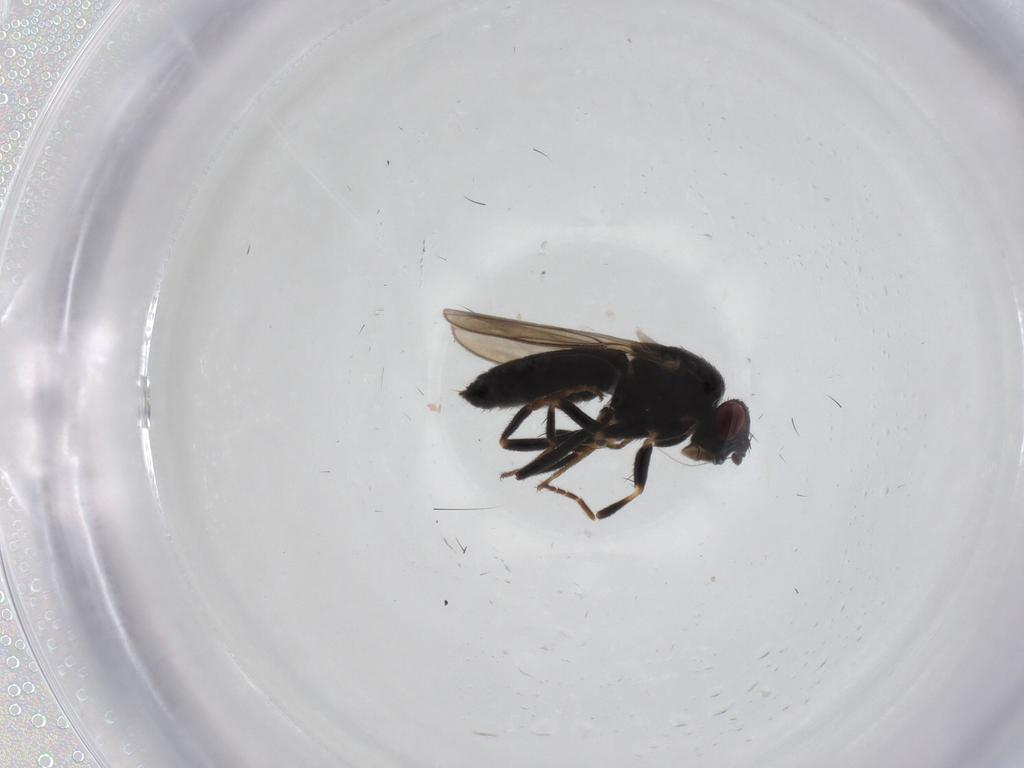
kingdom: Animalia
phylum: Arthropoda
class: Insecta
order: Diptera
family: Sphaeroceridae
